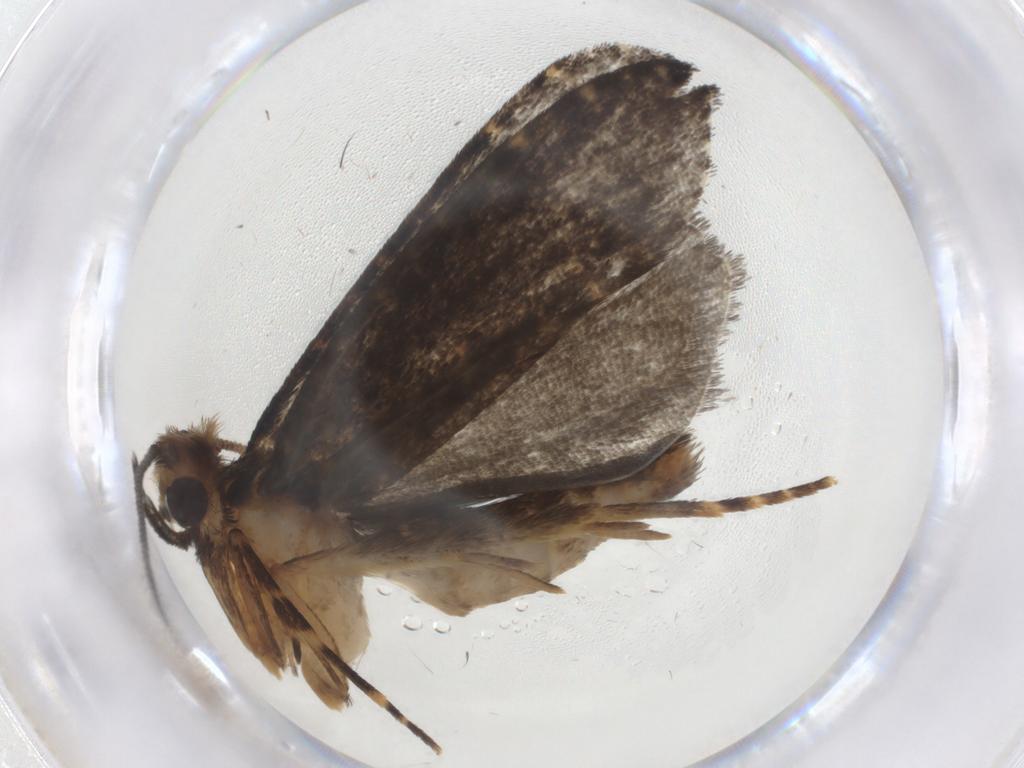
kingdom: Animalia
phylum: Arthropoda
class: Insecta
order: Lepidoptera
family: Tineidae
